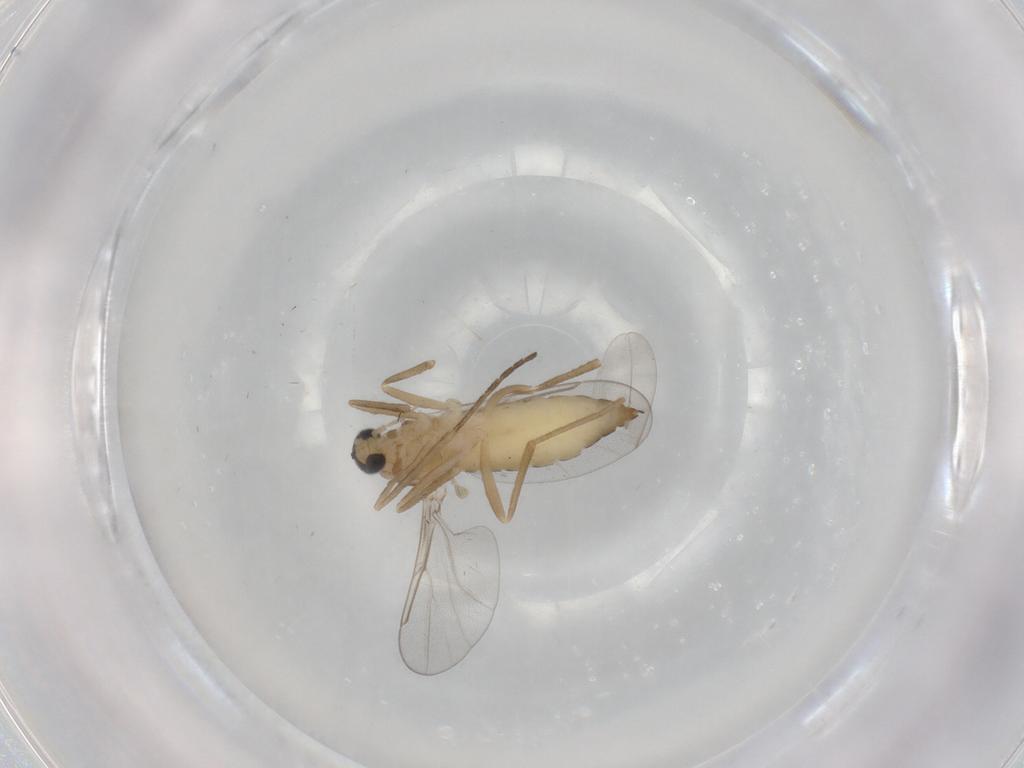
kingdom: Animalia
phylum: Arthropoda
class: Insecta
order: Diptera
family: Cecidomyiidae
